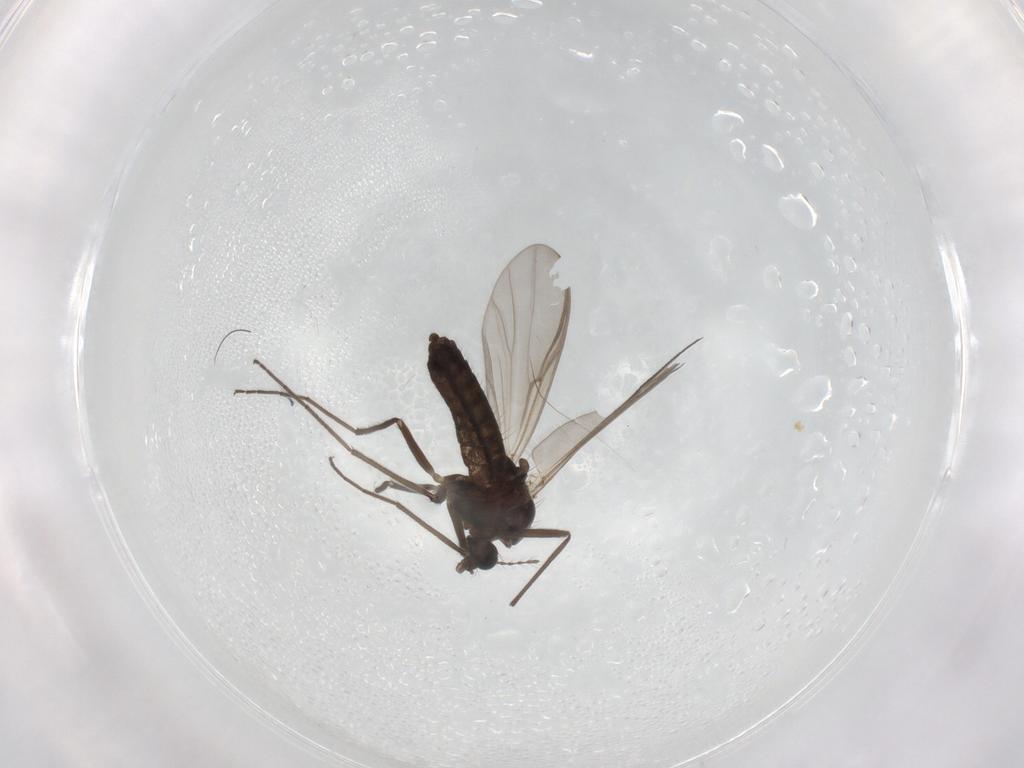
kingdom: Animalia
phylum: Arthropoda
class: Insecta
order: Diptera
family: Chironomidae
